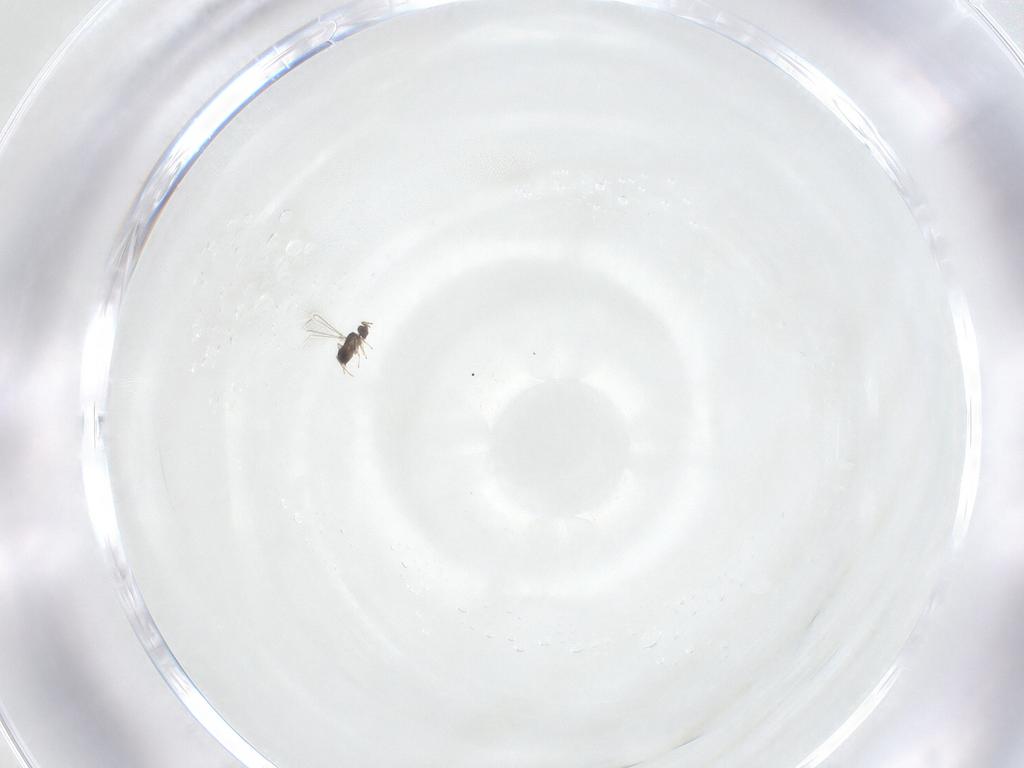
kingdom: Animalia
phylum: Arthropoda
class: Insecta
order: Hymenoptera
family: Mymaridae
